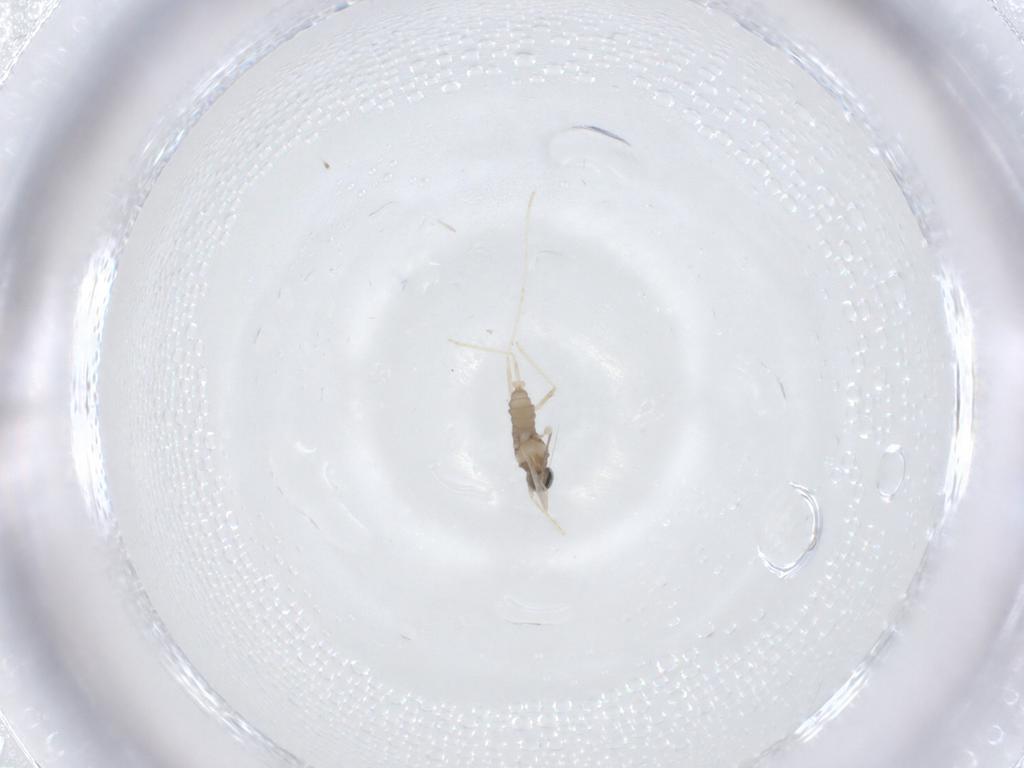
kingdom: Animalia
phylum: Arthropoda
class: Insecta
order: Diptera
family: Cecidomyiidae
